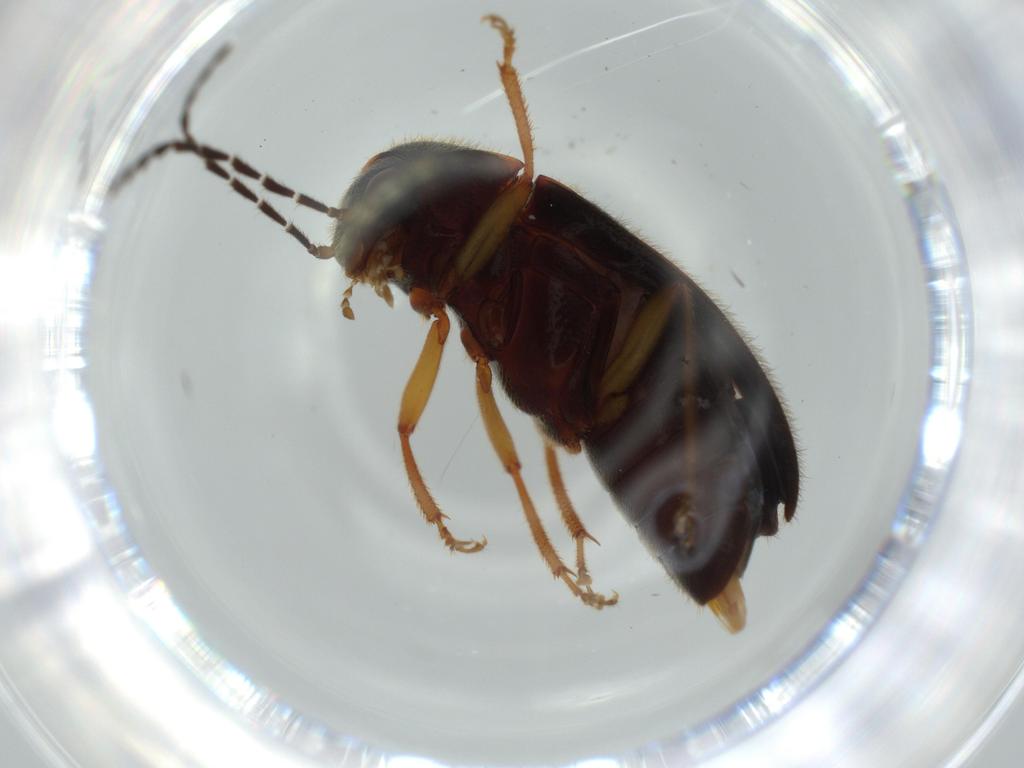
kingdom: Animalia
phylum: Arthropoda
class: Insecta
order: Coleoptera
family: Ptilodactylidae
